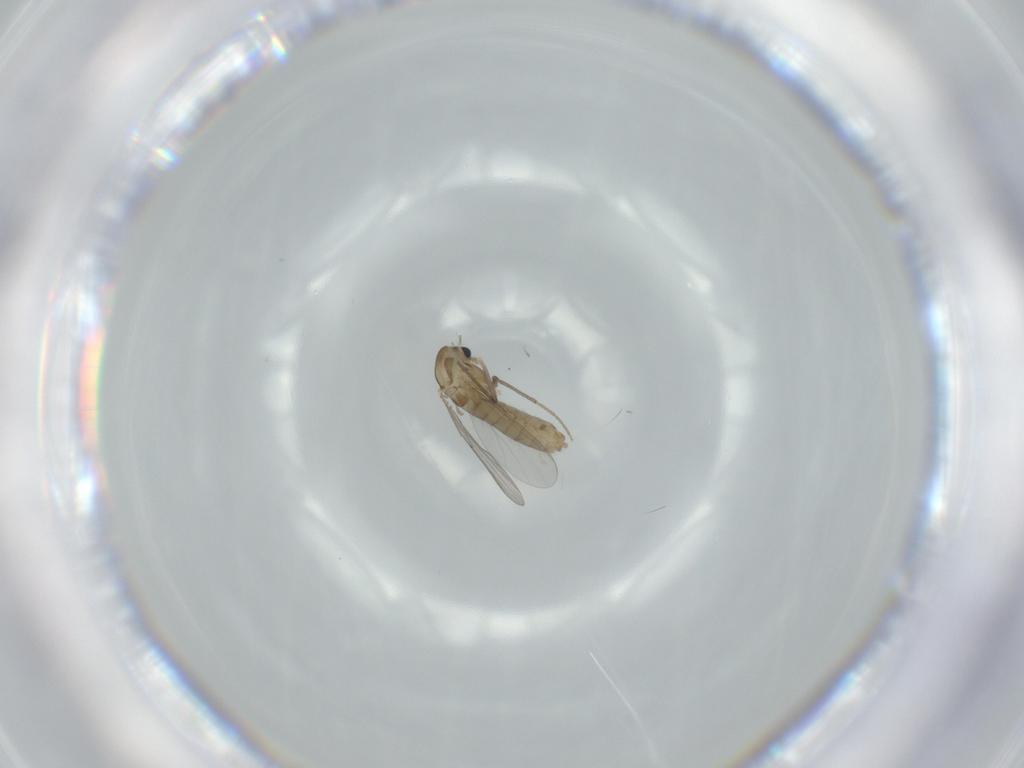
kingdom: Animalia
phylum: Arthropoda
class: Insecta
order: Diptera
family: Chironomidae
